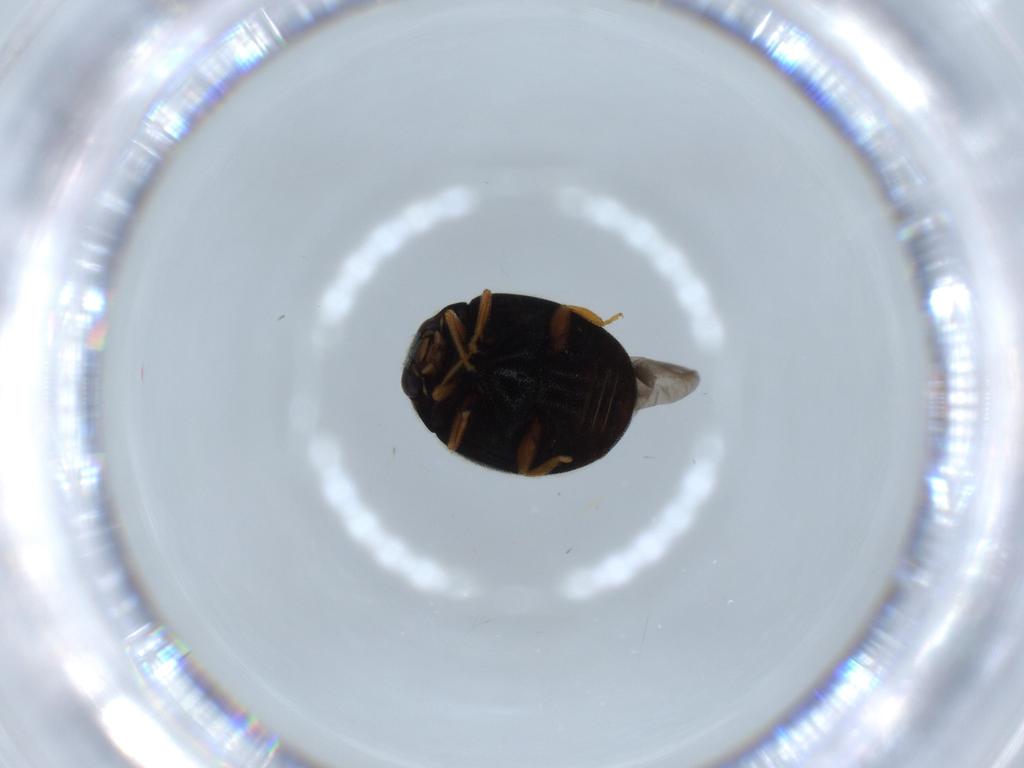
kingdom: Animalia
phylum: Arthropoda
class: Insecta
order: Coleoptera
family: Coccinellidae
